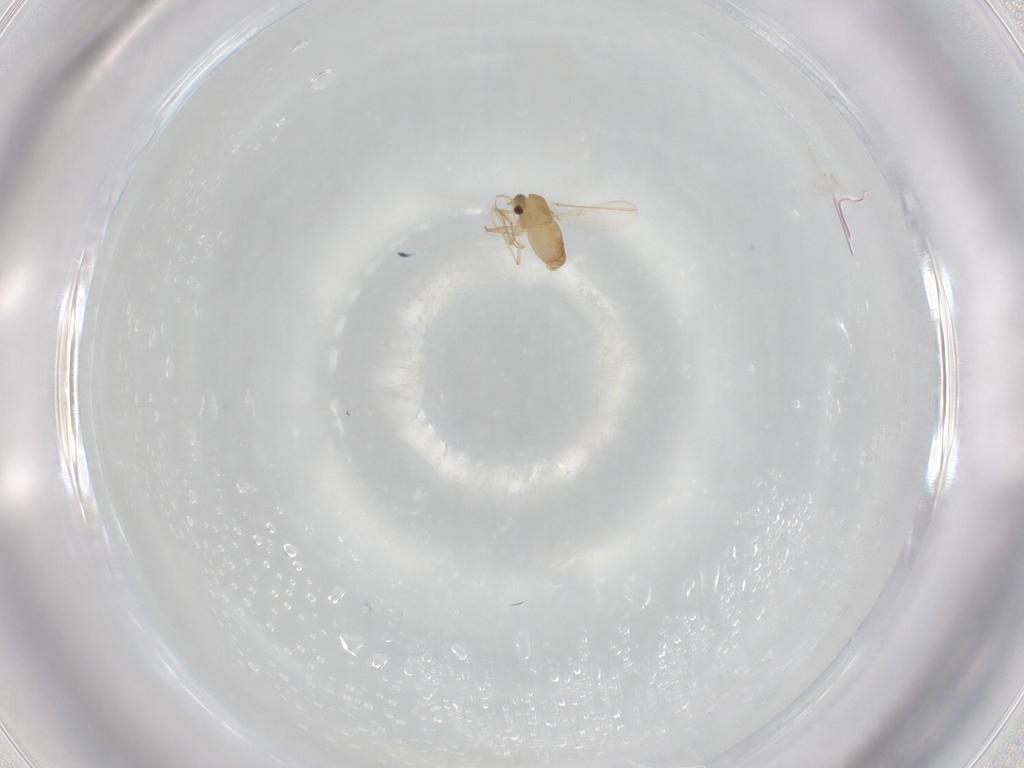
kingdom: Animalia
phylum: Arthropoda
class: Insecta
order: Diptera
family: Chironomidae
